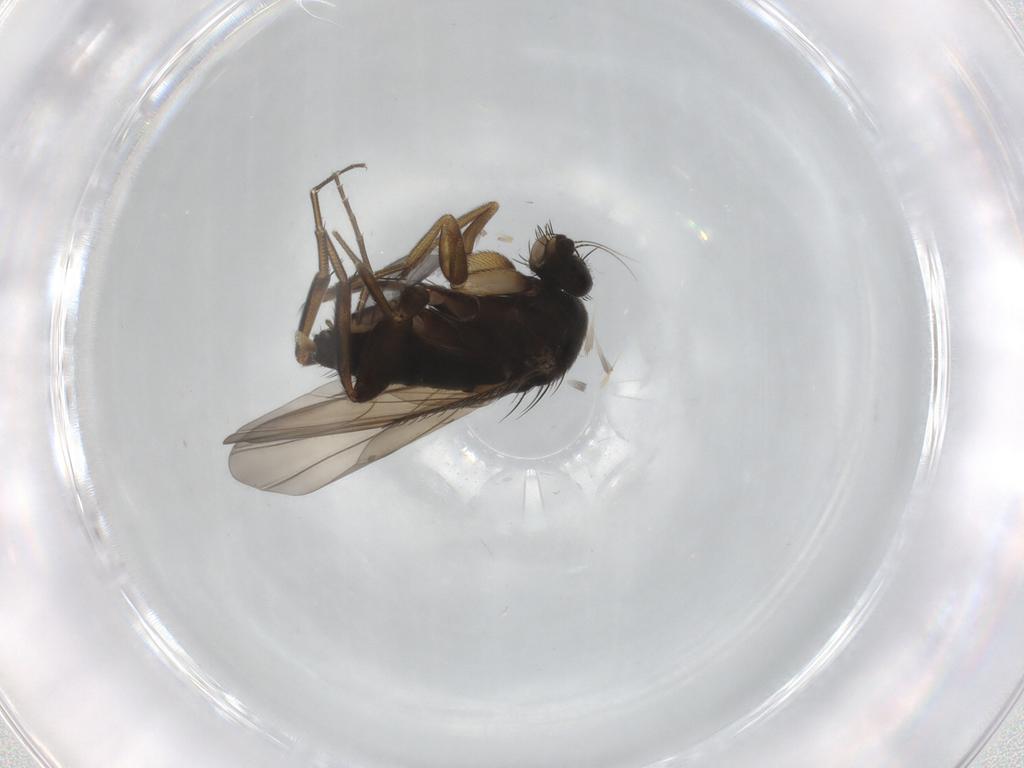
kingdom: Animalia
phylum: Arthropoda
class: Insecta
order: Diptera
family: Phoridae
